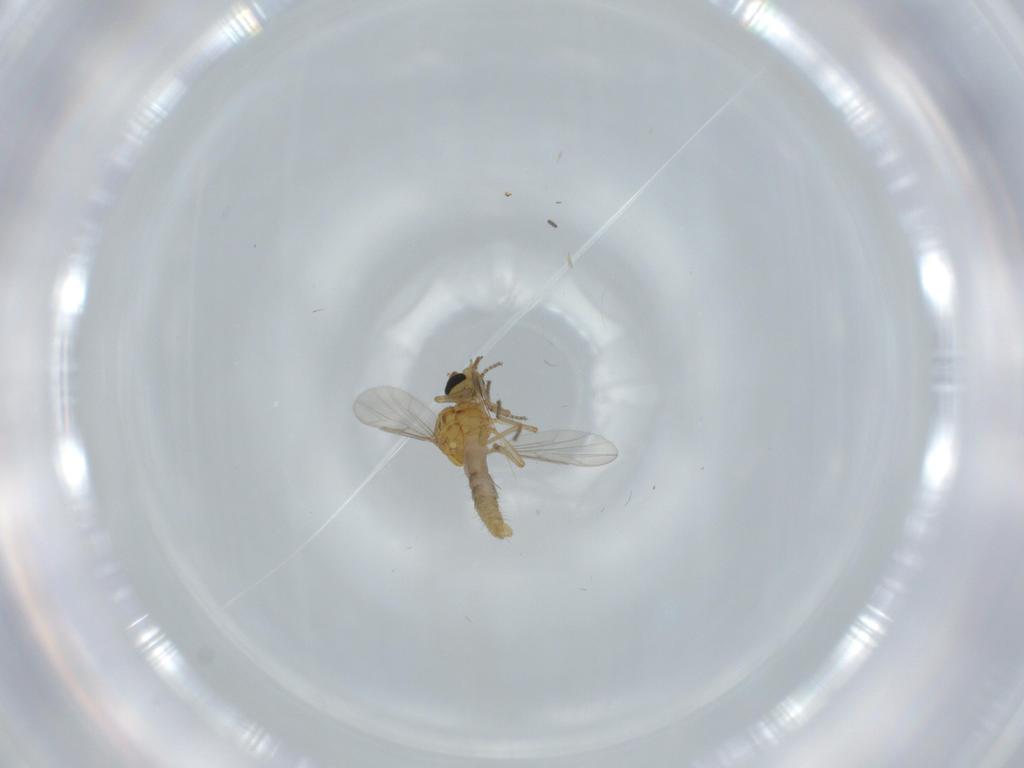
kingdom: Animalia
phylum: Arthropoda
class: Insecta
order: Diptera
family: Ceratopogonidae
